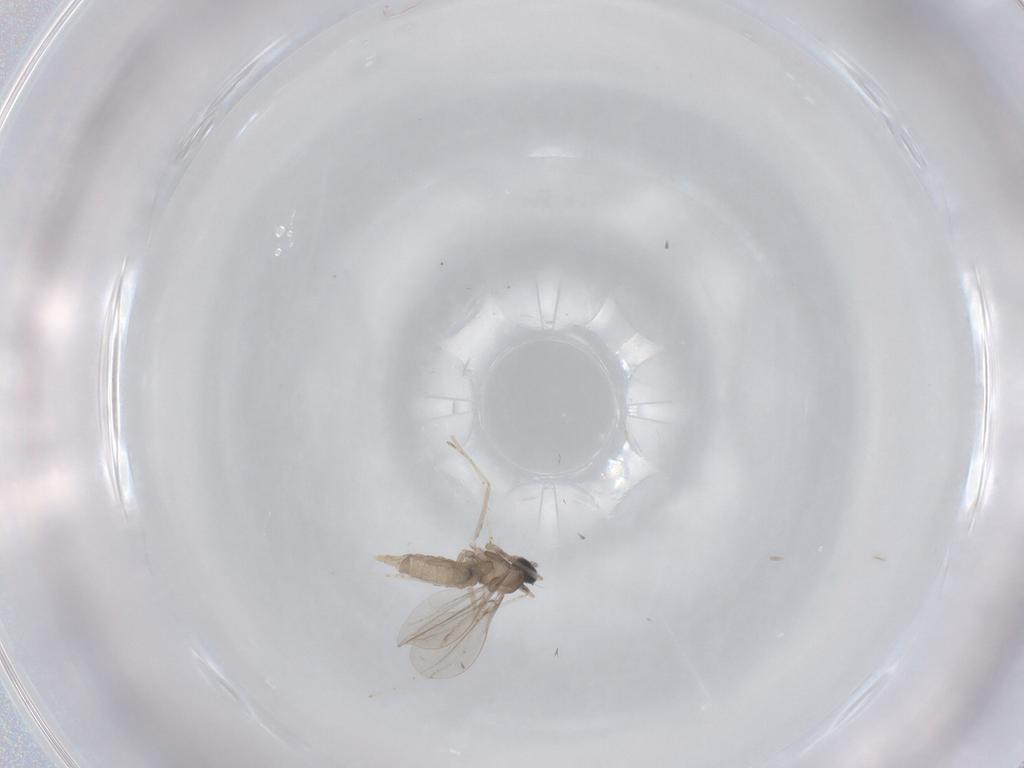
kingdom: Animalia
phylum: Arthropoda
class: Insecta
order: Diptera
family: Cecidomyiidae
